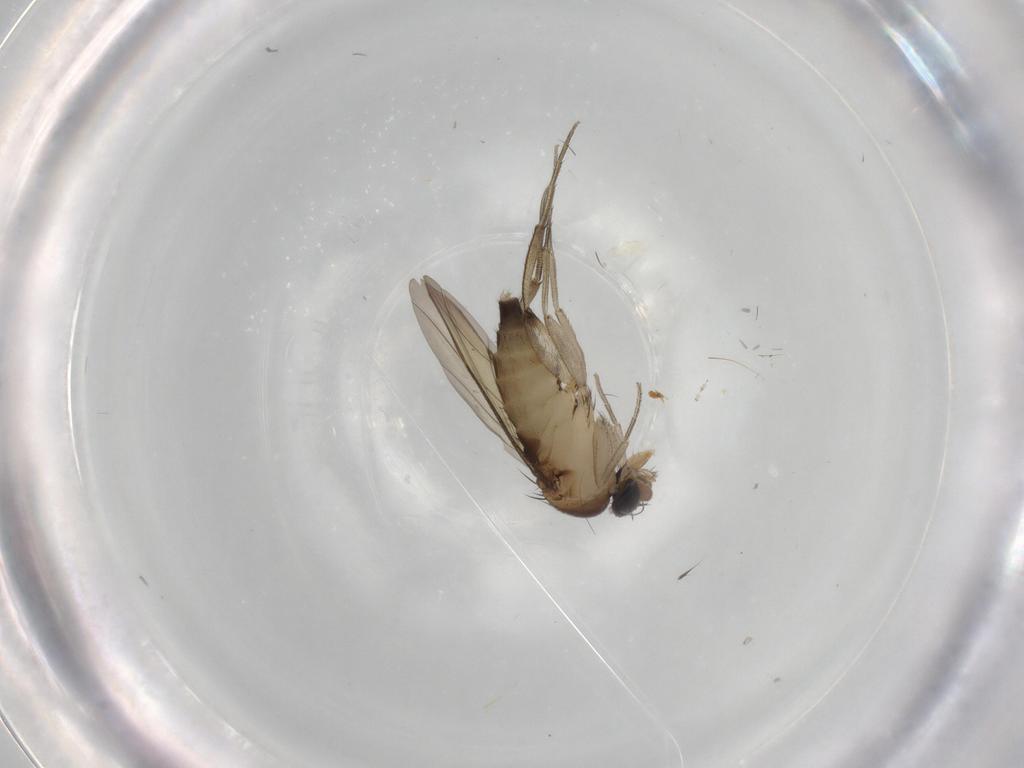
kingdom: Animalia
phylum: Arthropoda
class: Insecta
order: Diptera
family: Phoridae
